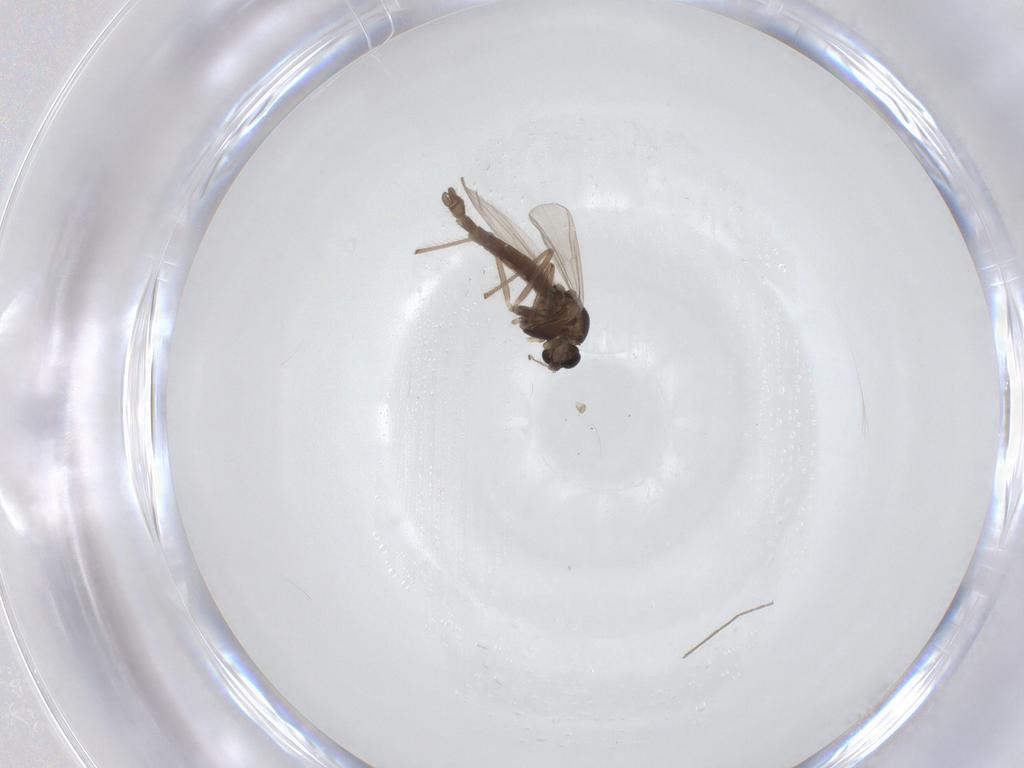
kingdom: Animalia
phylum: Arthropoda
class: Insecta
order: Diptera
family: Chironomidae
